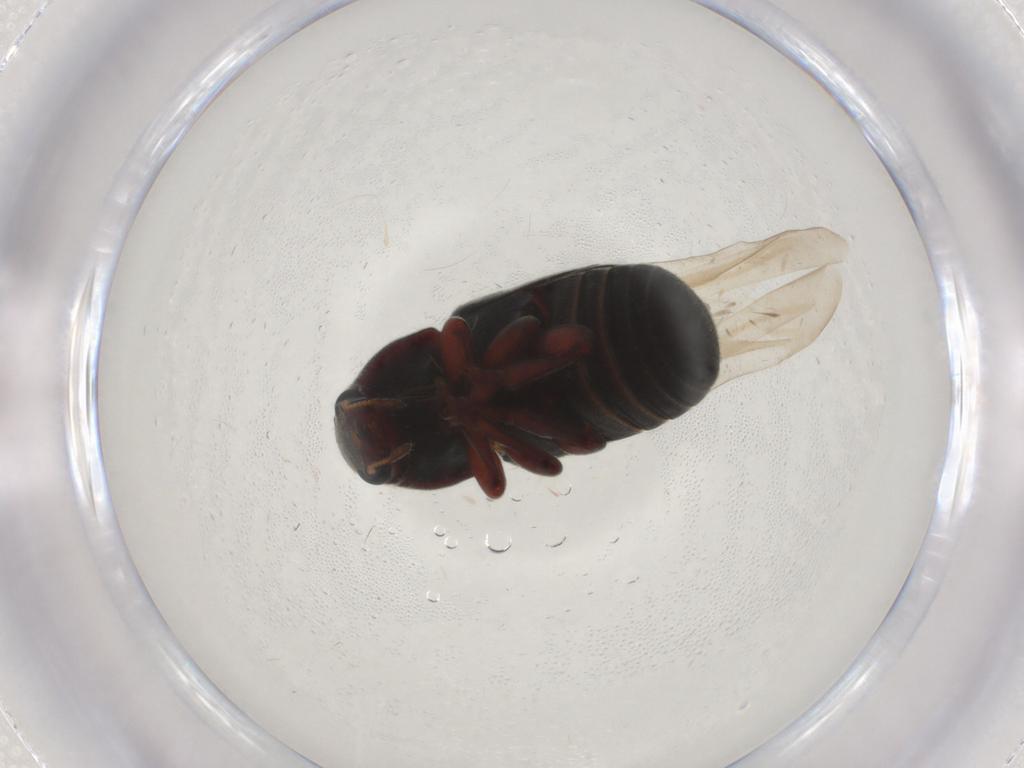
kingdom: Animalia
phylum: Arthropoda
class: Insecta
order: Coleoptera
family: Anthribidae
